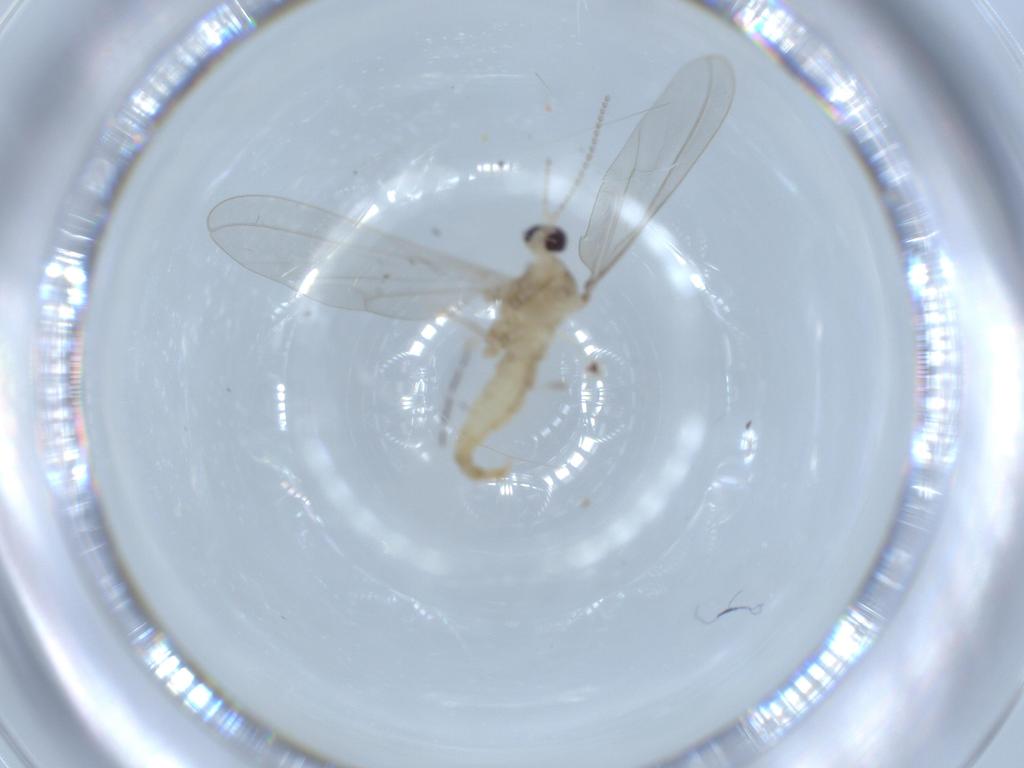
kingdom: Animalia
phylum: Arthropoda
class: Insecta
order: Diptera
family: Cecidomyiidae
